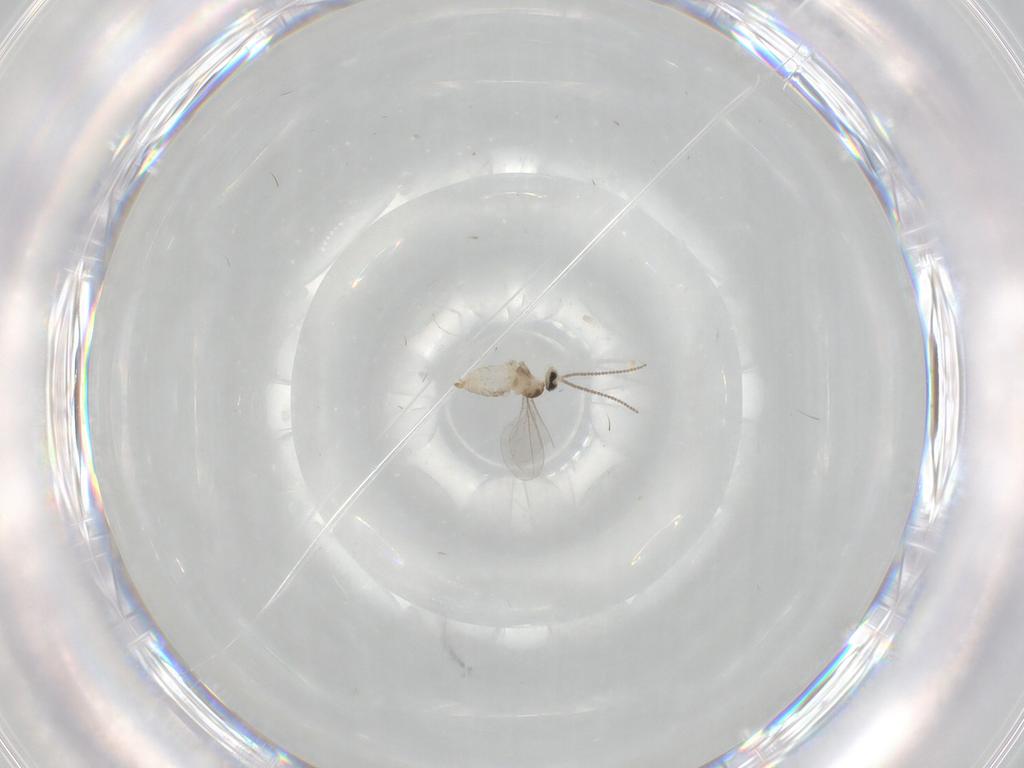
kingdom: Animalia
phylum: Arthropoda
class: Insecta
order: Diptera
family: Cecidomyiidae
